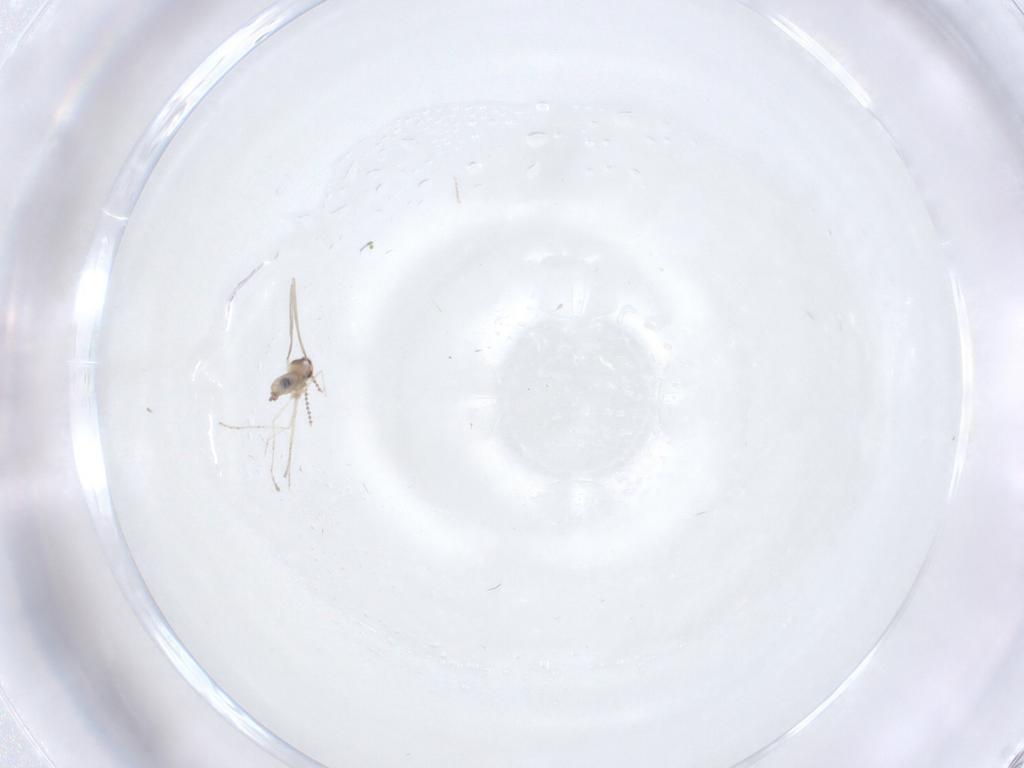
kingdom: Animalia
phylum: Arthropoda
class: Insecta
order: Diptera
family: Cecidomyiidae
